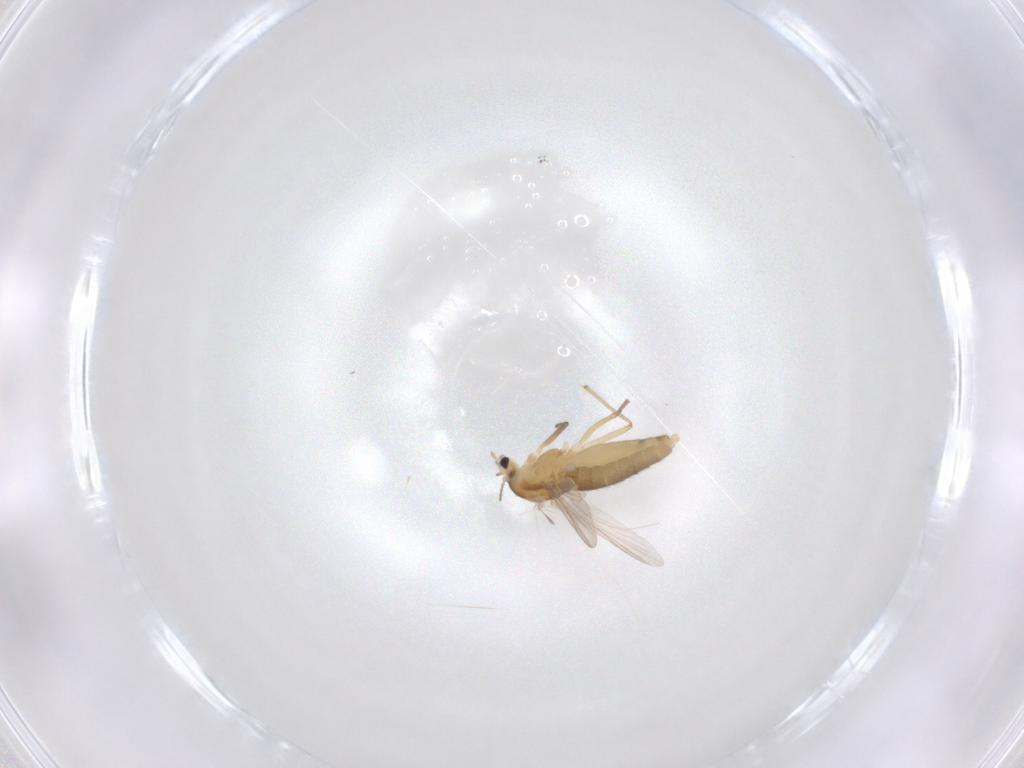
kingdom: Animalia
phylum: Arthropoda
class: Insecta
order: Diptera
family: Chironomidae
